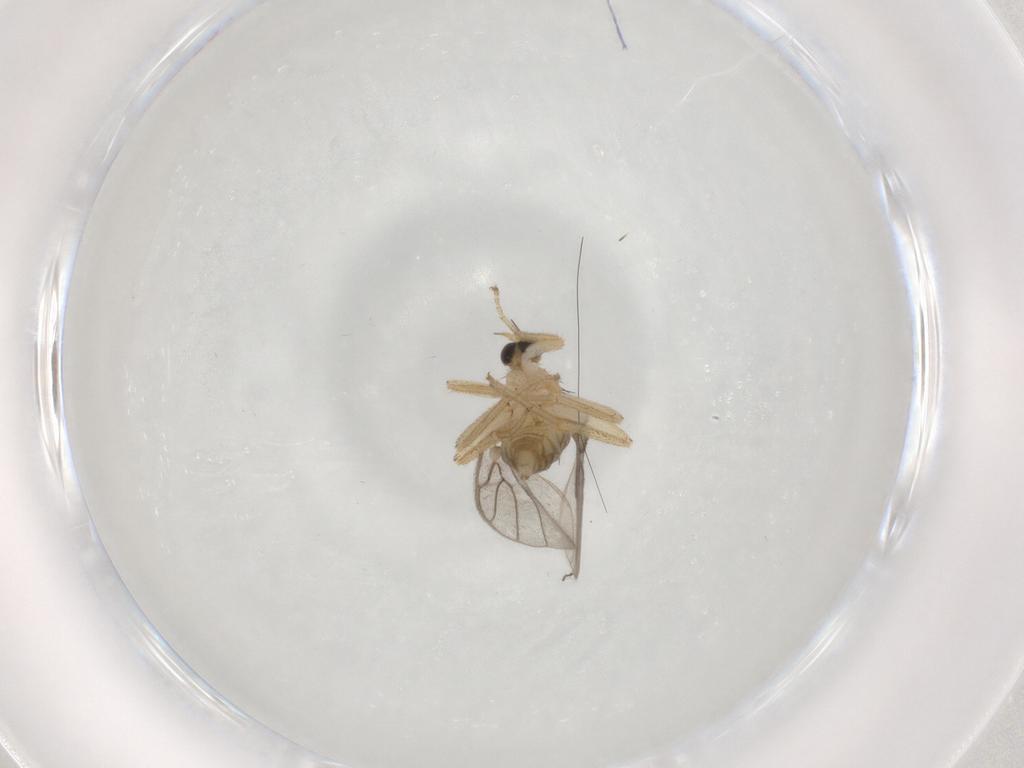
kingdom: Animalia
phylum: Arthropoda
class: Insecta
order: Diptera
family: Hybotidae
